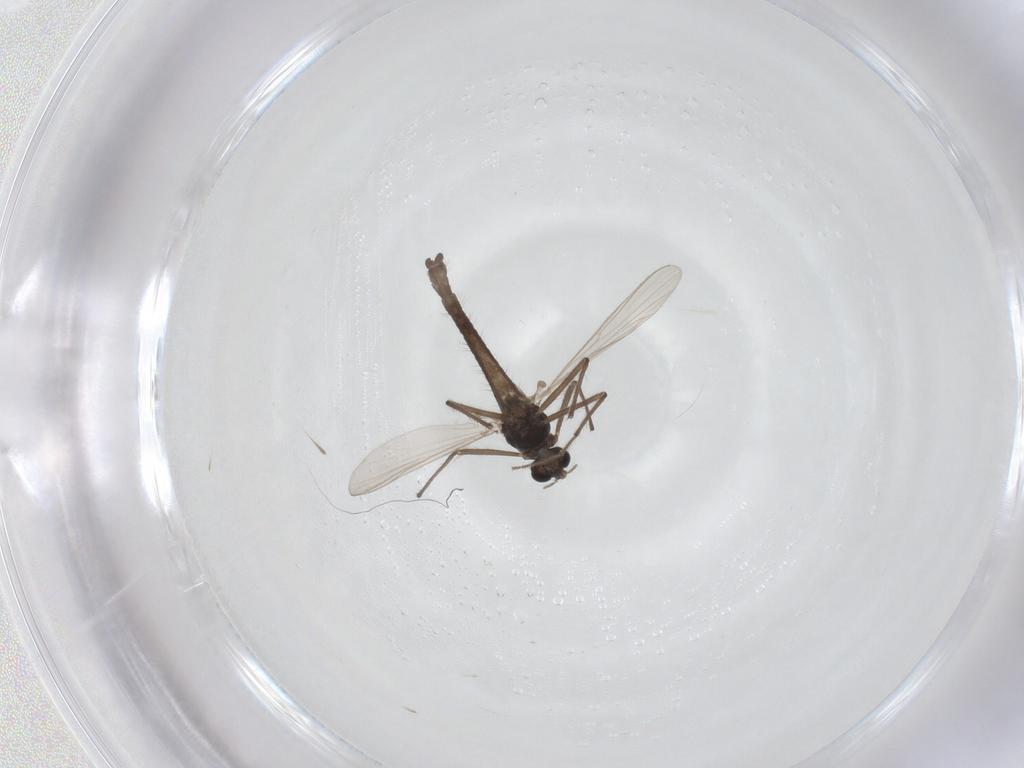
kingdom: Animalia
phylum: Arthropoda
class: Insecta
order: Diptera
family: Chironomidae
